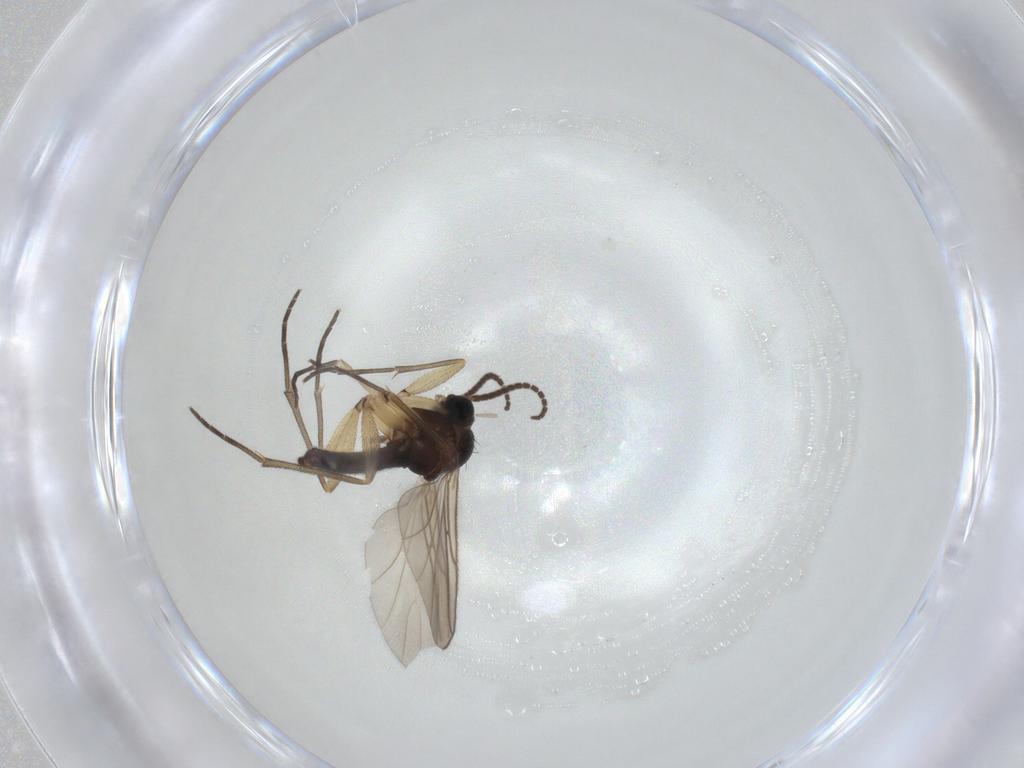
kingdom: Animalia
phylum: Arthropoda
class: Insecta
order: Diptera
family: Sciaridae
